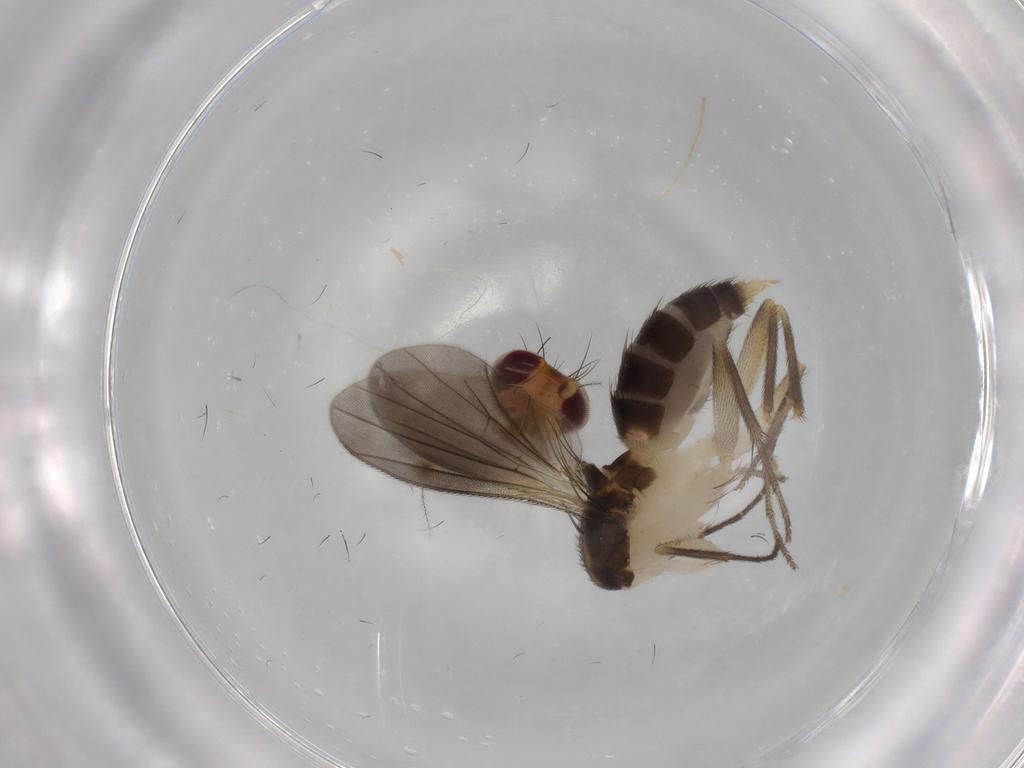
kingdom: Animalia
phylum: Arthropoda
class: Insecta
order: Diptera
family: Clusiidae
